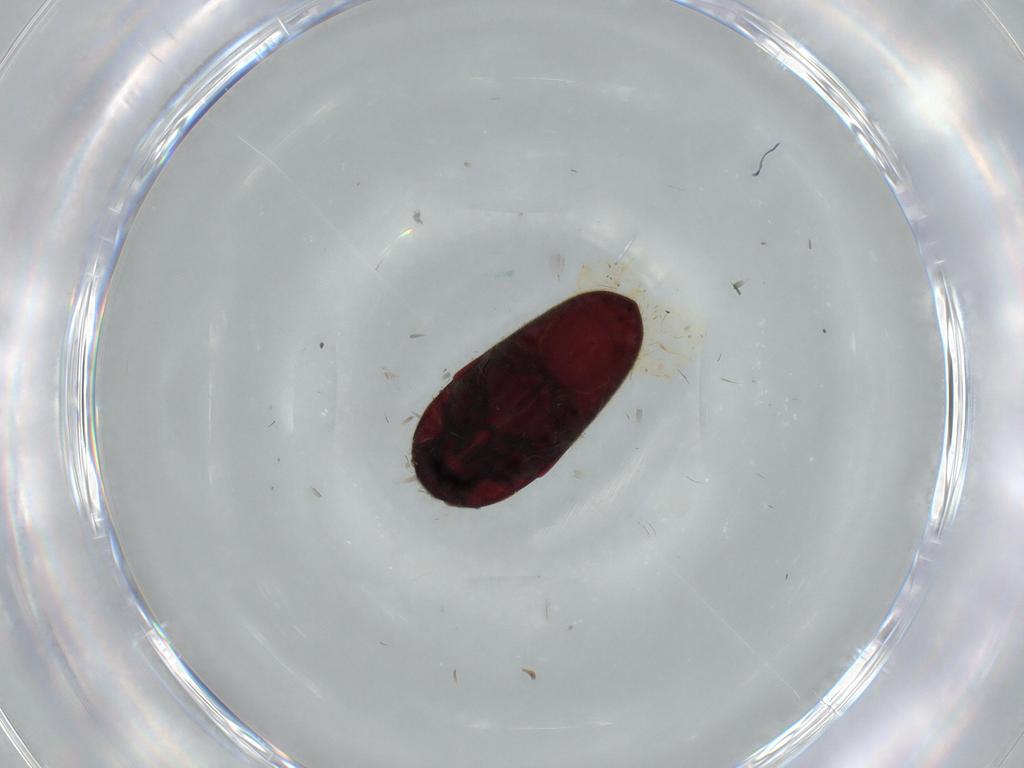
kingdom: Animalia
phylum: Arthropoda
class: Insecta
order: Coleoptera
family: Throscidae
